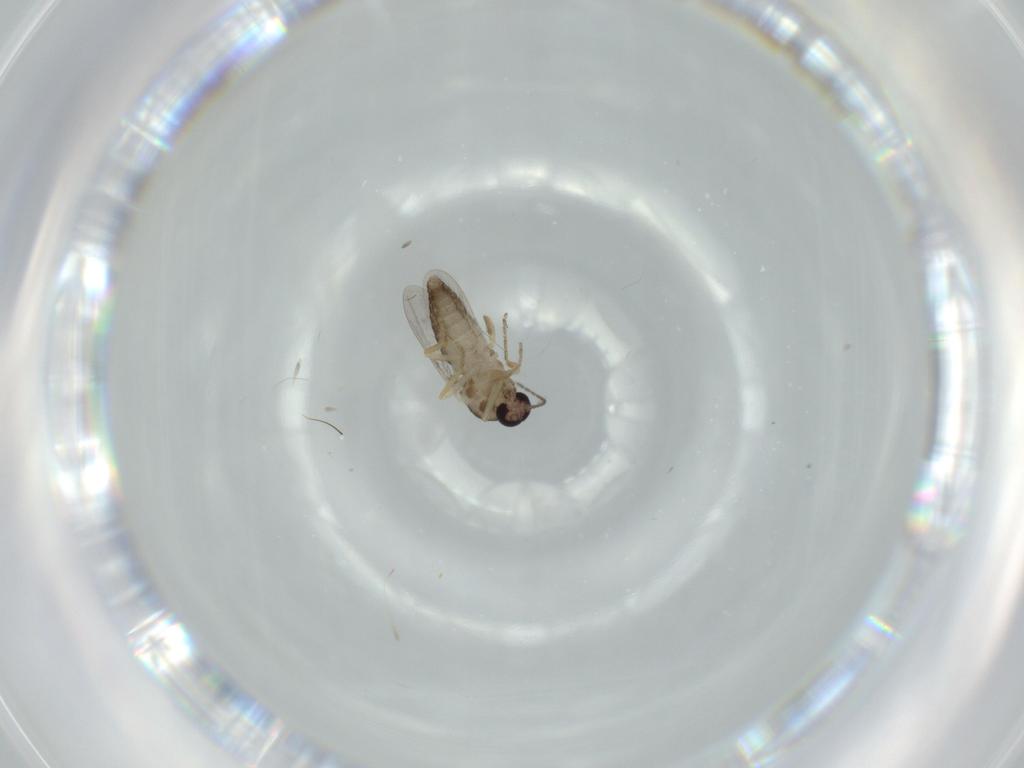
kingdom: Animalia
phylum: Arthropoda
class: Insecta
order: Diptera
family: Ceratopogonidae
